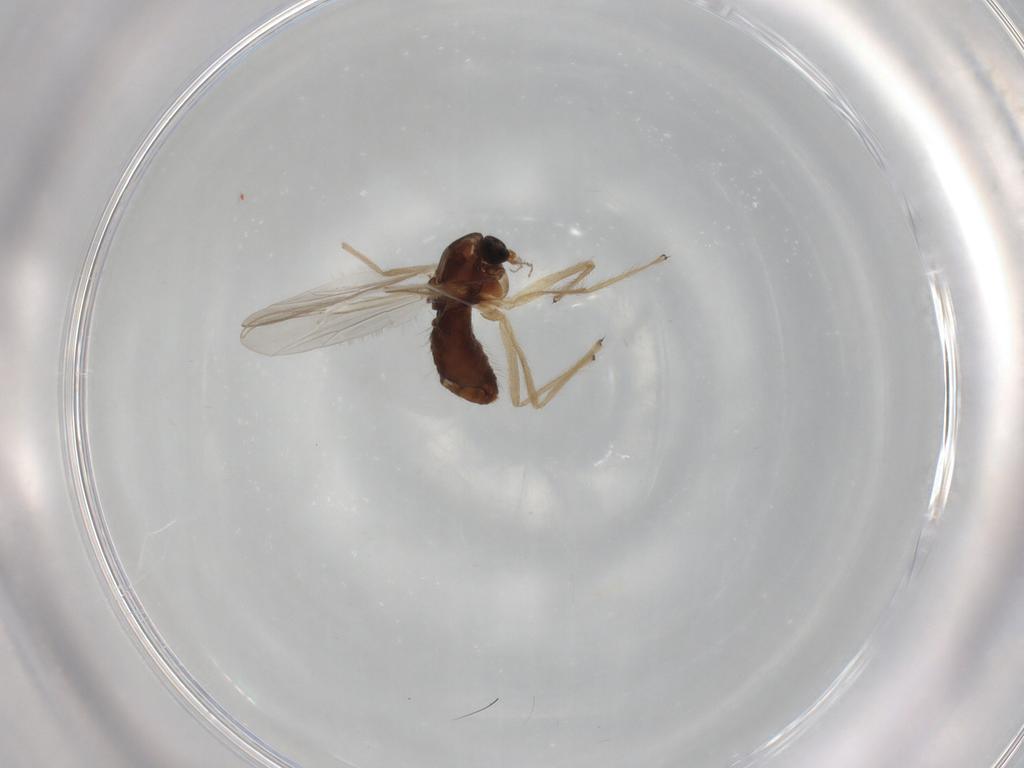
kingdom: Animalia
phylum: Arthropoda
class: Insecta
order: Diptera
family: Chironomidae
